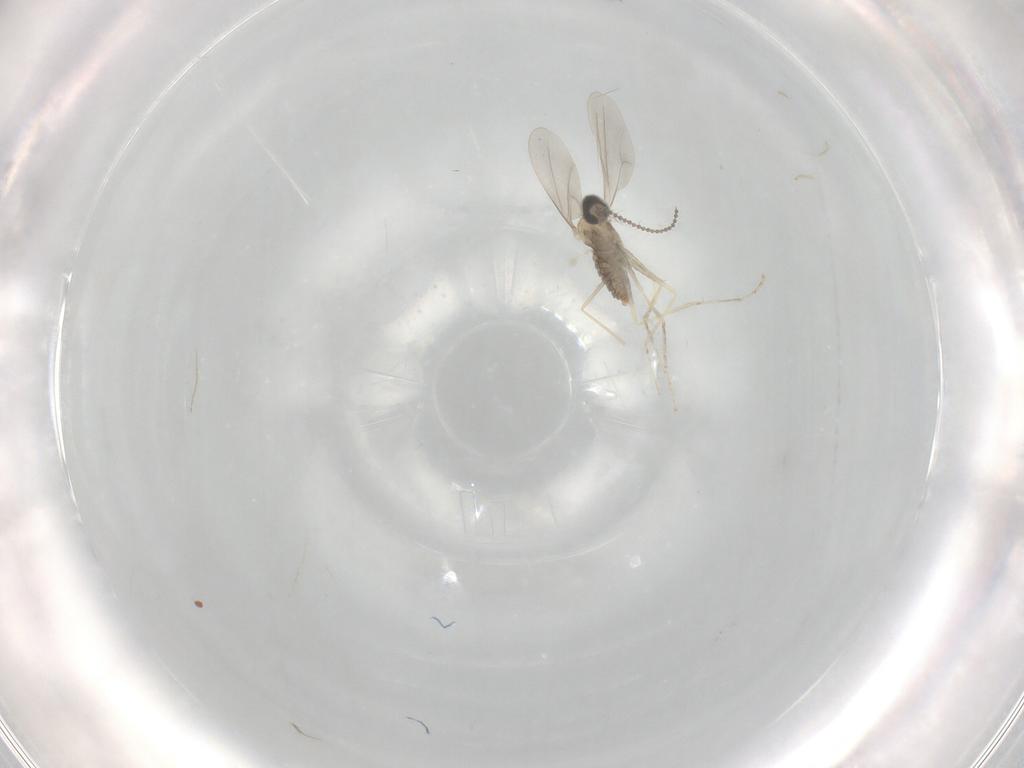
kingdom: Animalia
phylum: Arthropoda
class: Insecta
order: Diptera
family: Cecidomyiidae
